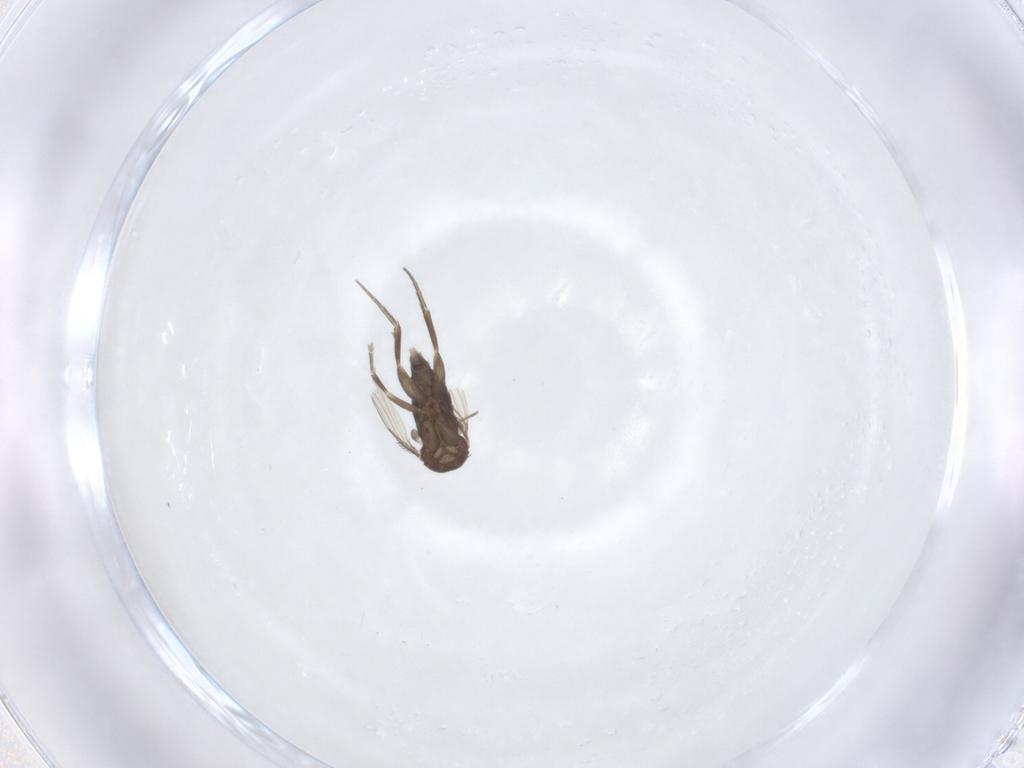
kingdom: Animalia
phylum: Arthropoda
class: Insecta
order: Diptera
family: Phoridae
